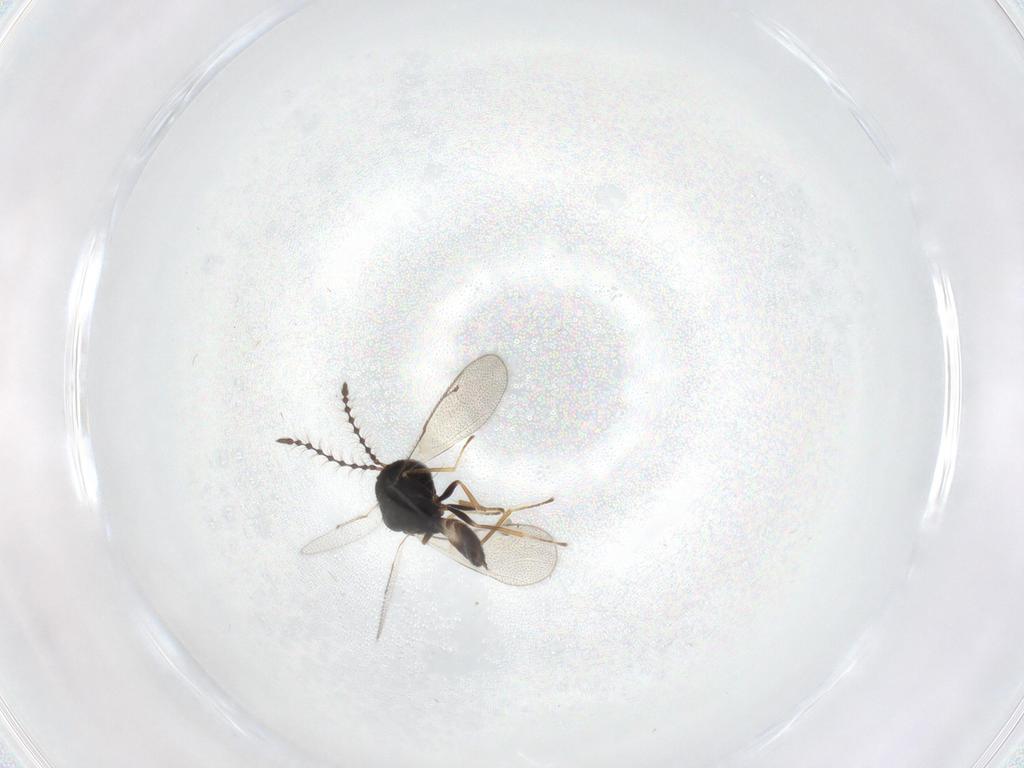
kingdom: Animalia
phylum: Arthropoda
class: Insecta
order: Hymenoptera
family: Pteromalidae
